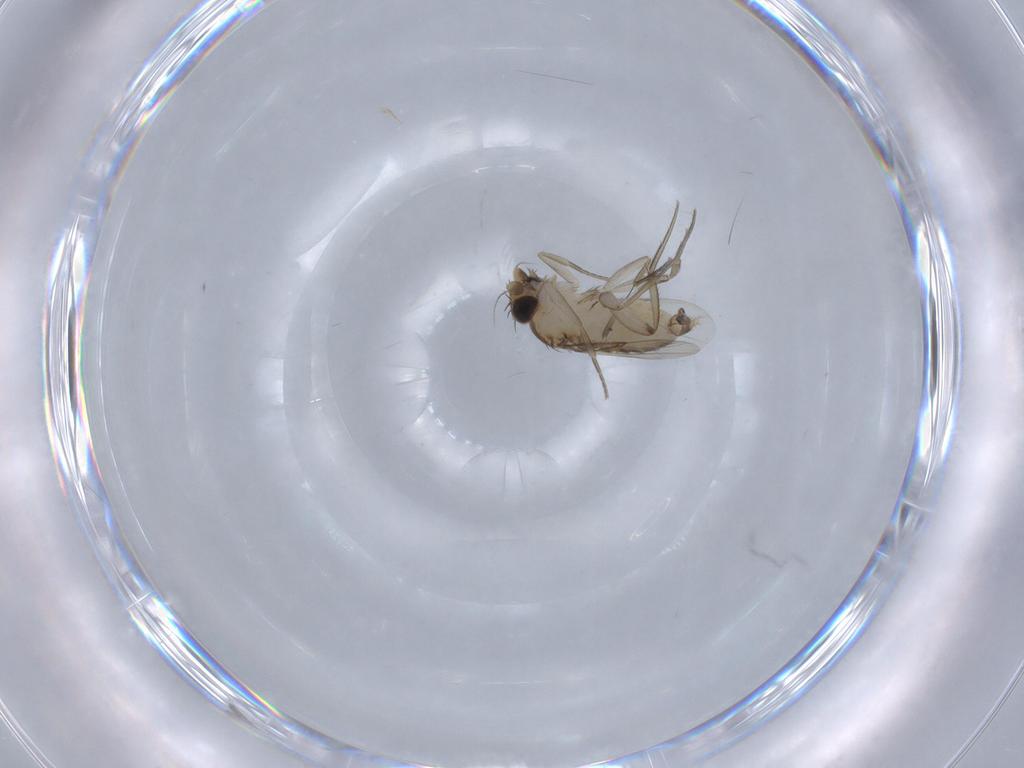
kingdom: Animalia
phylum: Arthropoda
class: Insecta
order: Diptera
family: Phoridae
